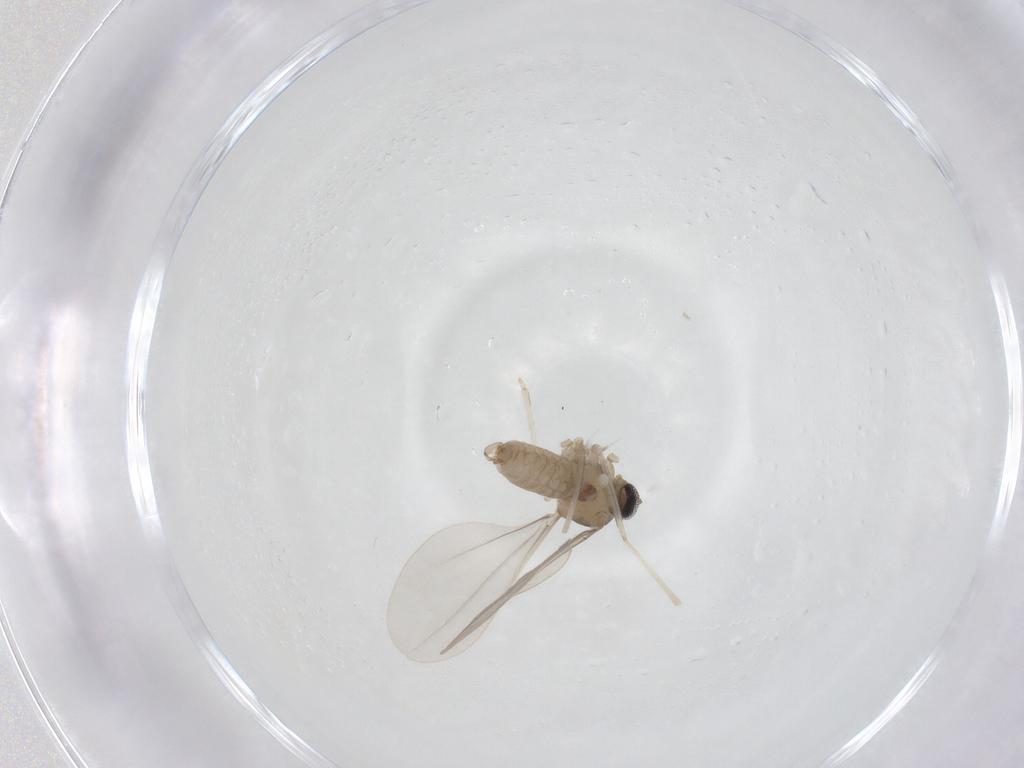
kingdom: Animalia
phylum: Arthropoda
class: Insecta
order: Diptera
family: Cecidomyiidae
